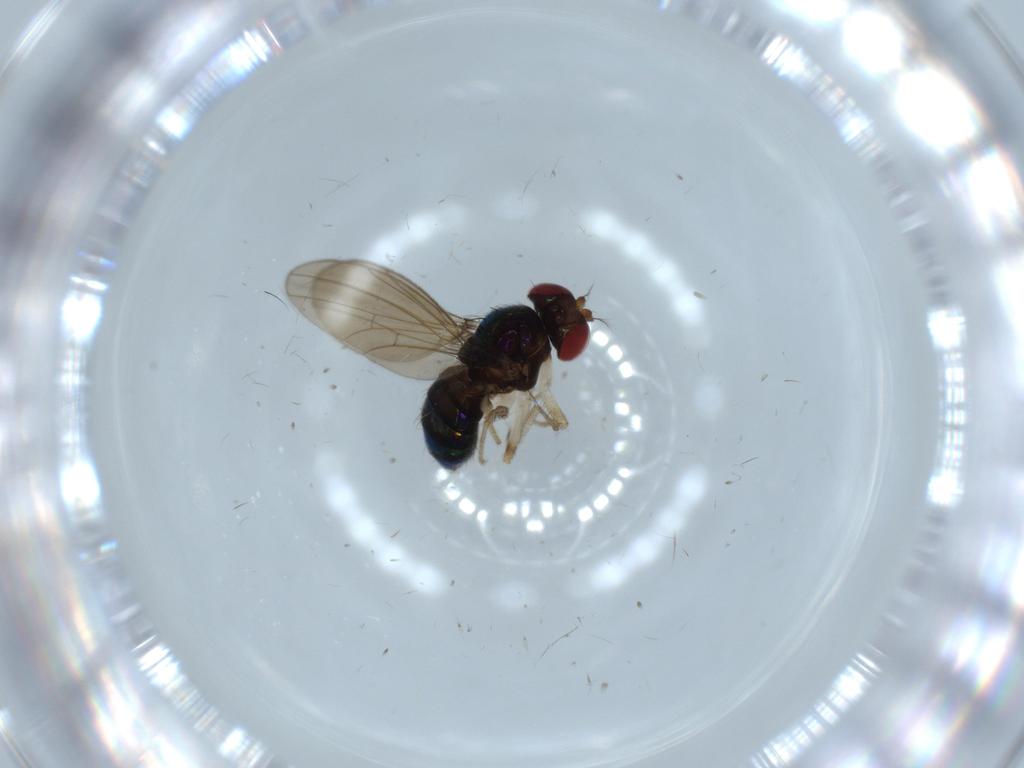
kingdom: Animalia
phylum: Arthropoda
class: Insecta
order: Diptera
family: Drosophilidae
